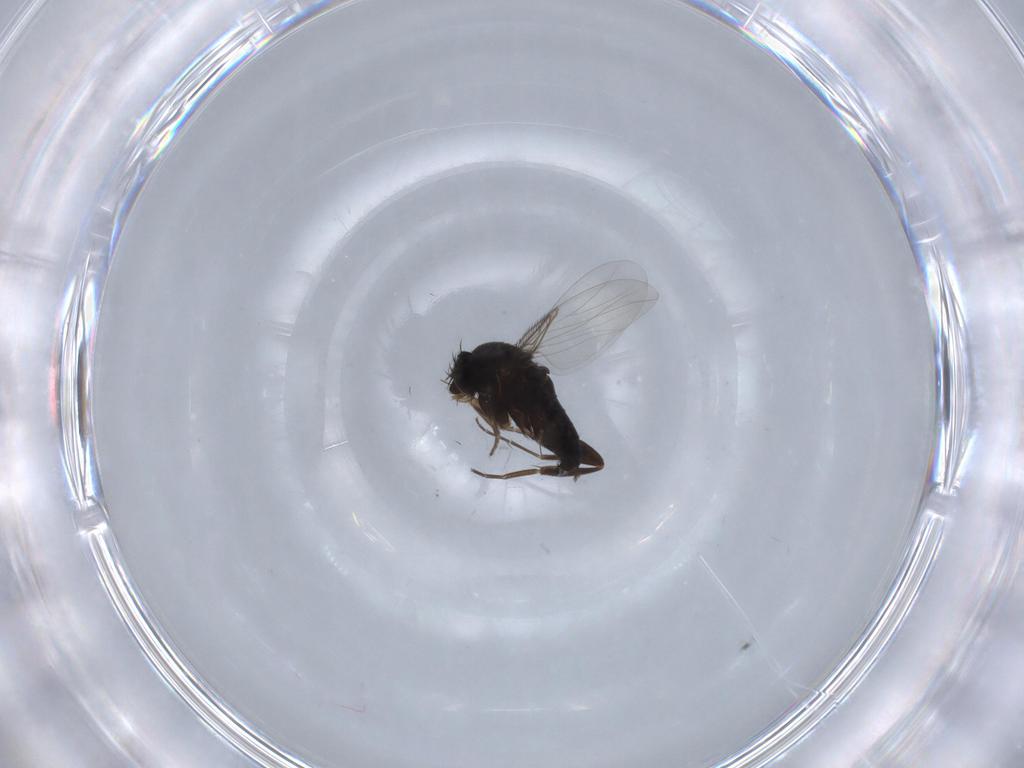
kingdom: Animalia
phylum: Arthropoda
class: Insecta
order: Diptera
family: Phoridae
